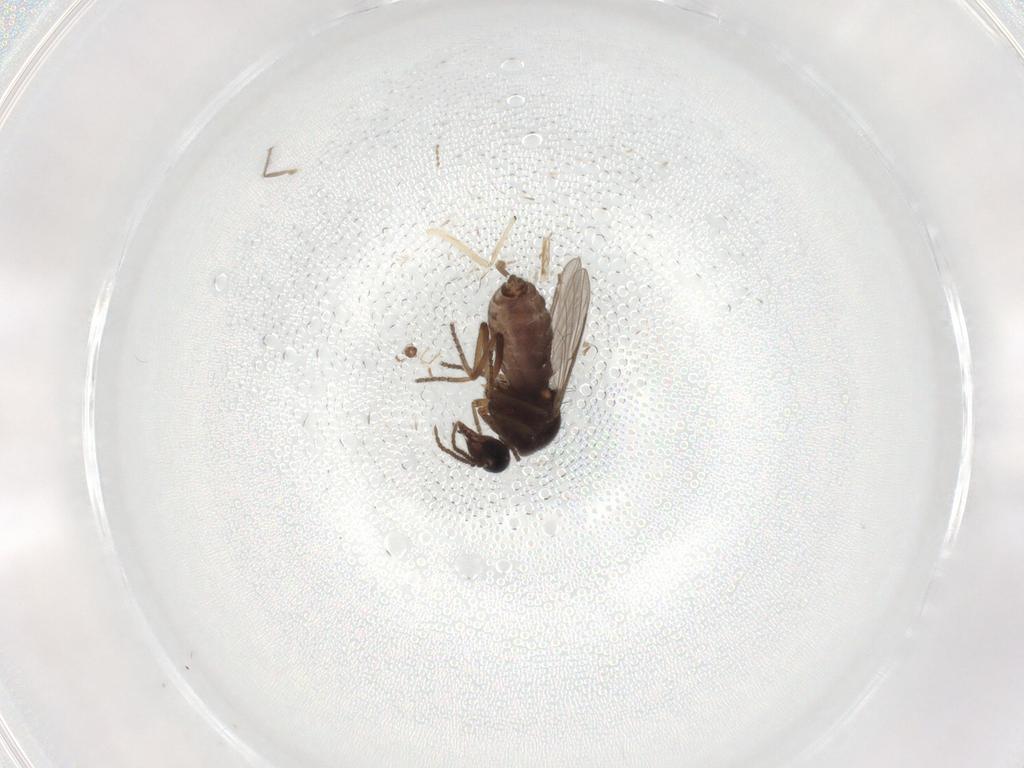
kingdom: Animalia
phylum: Arthropoda
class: Insecta
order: Diptera
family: Ceratopogonidae
